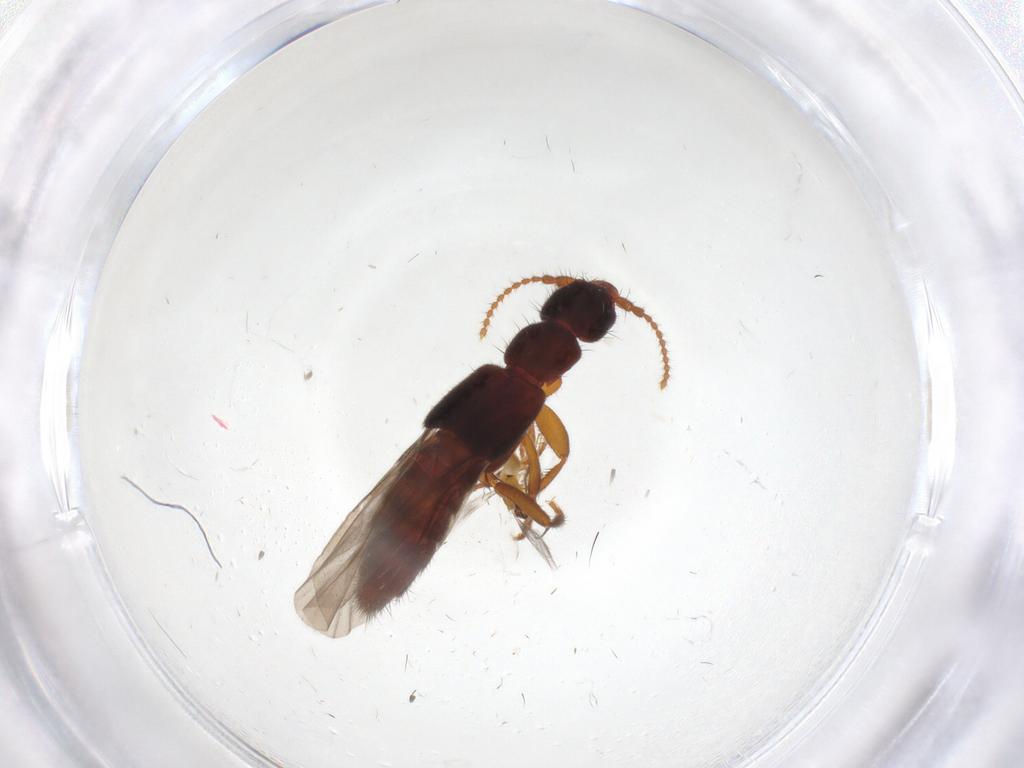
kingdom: Animalia
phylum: Arthropoda
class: Insecta
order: Coleoptera
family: Staphylinidae
